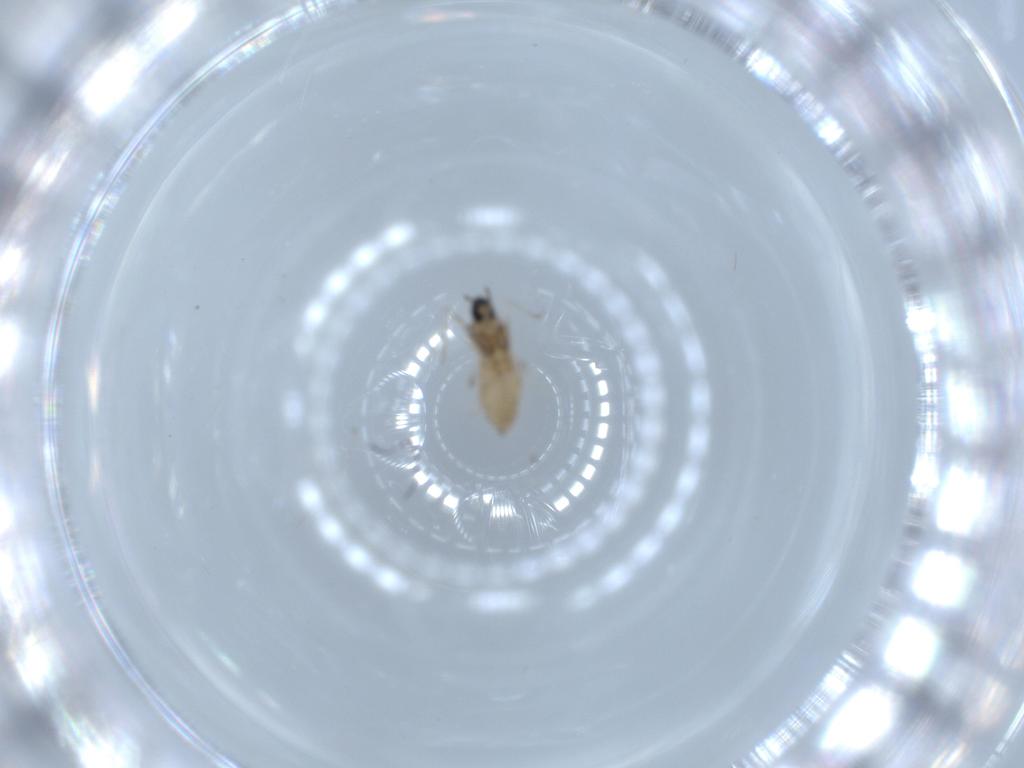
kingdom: Animalia
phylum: Arthropoda
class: Insecta
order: Diptera
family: Cecidomyiidae
